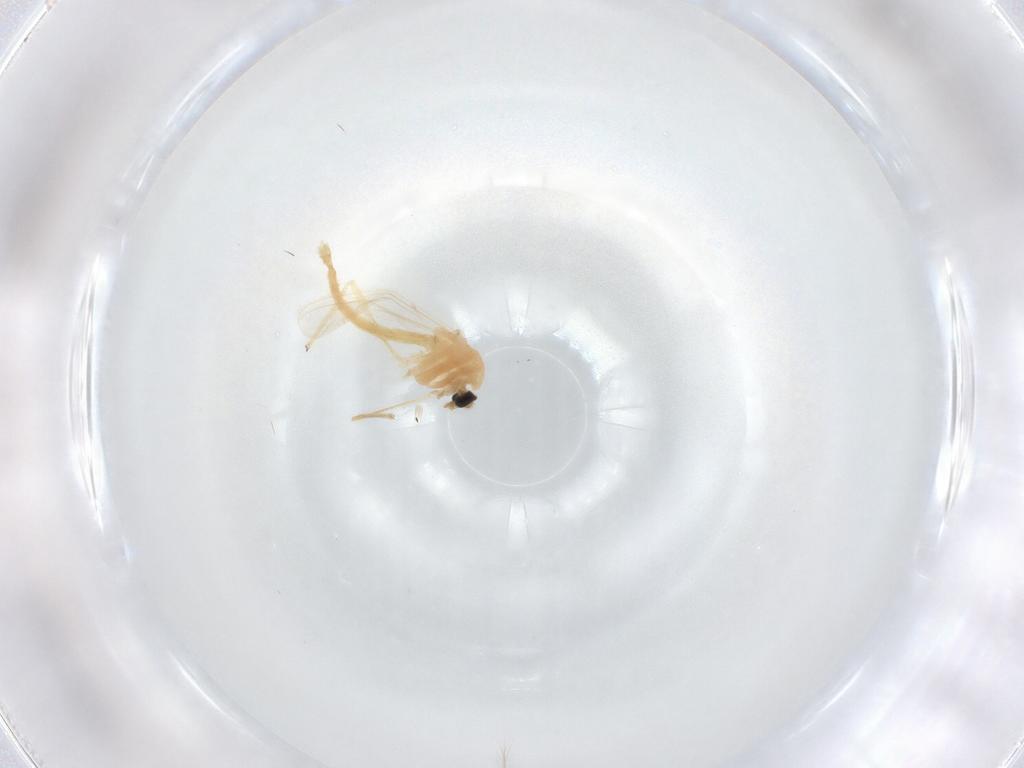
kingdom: Animalia
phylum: Arthropoda
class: Insecta
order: Diptera
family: Chironomidae
